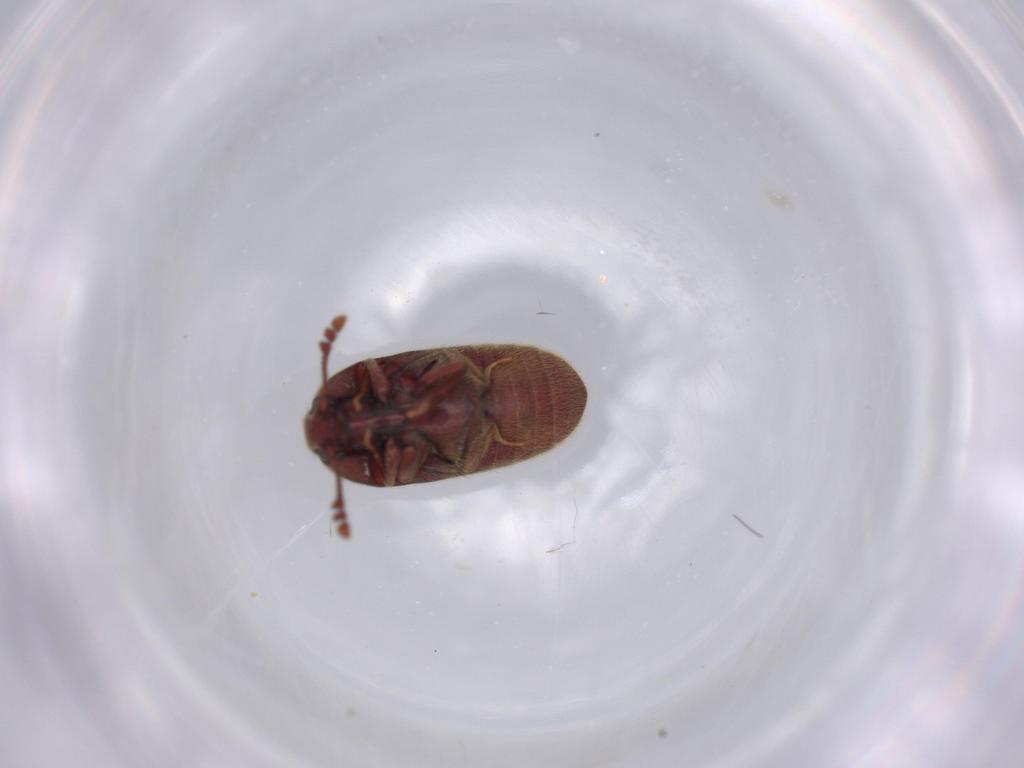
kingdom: Animalia
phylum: Arthropoda
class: Insecta
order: Coleoptera
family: Throscidae
